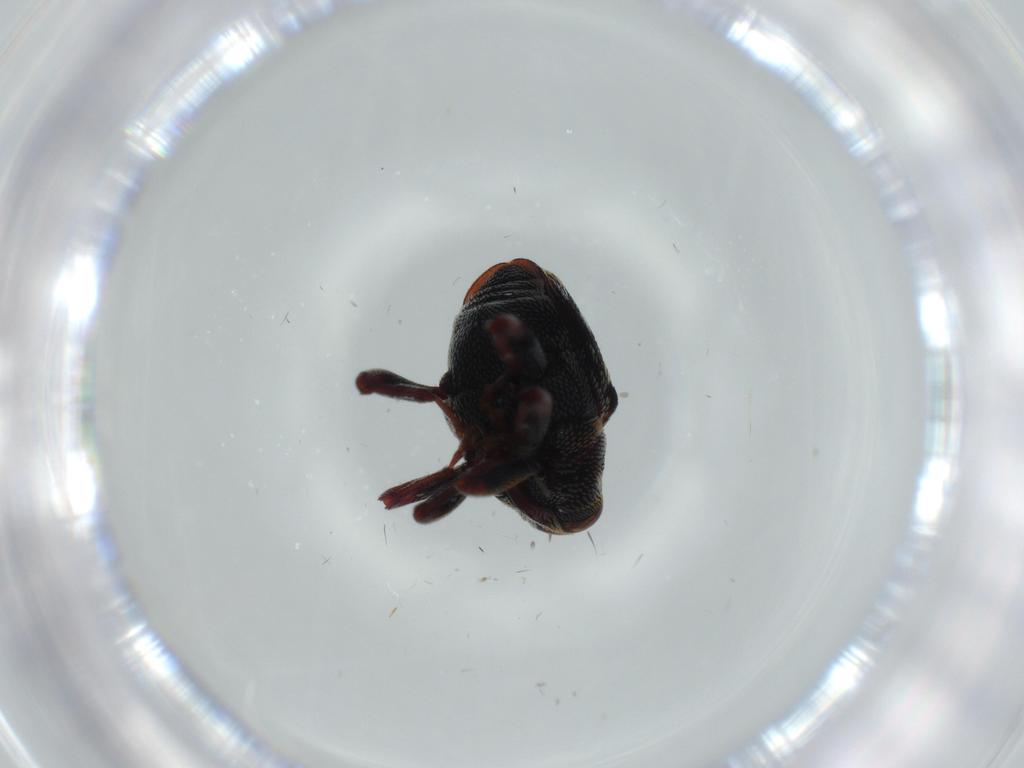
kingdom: Animalia
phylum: Arthropoda
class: Insecta
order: Coleoptera
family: Curculionidae
